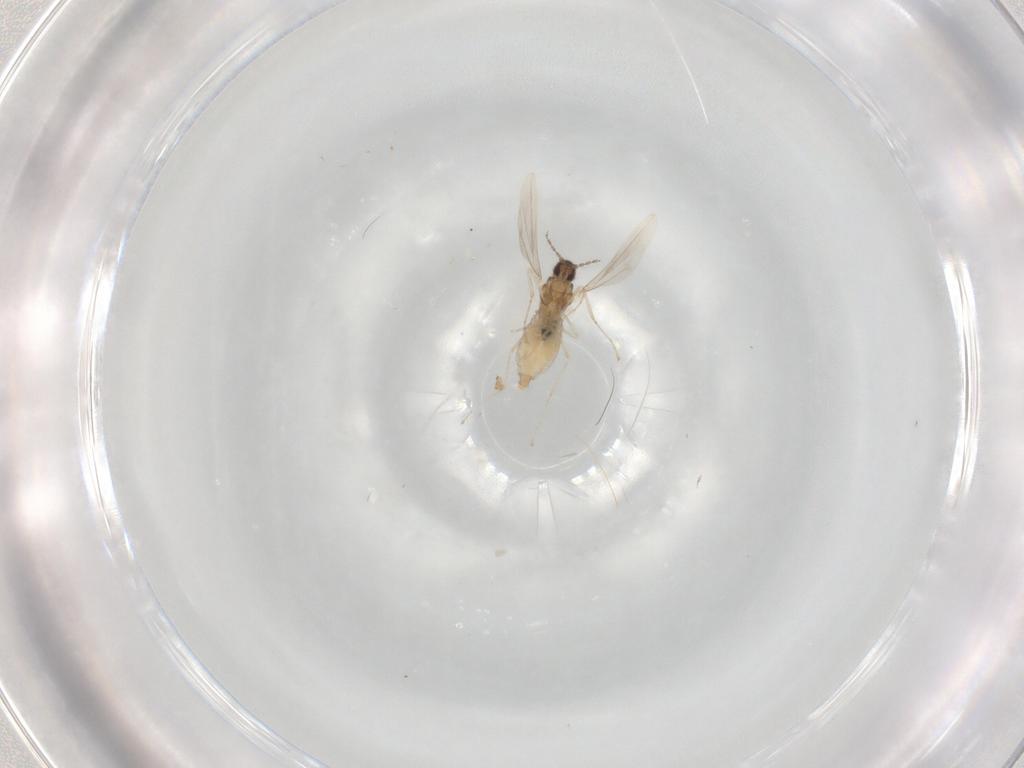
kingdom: Animalia
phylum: Arthropoda
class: Insecta
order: Diptera
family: Cecidomyiidae
